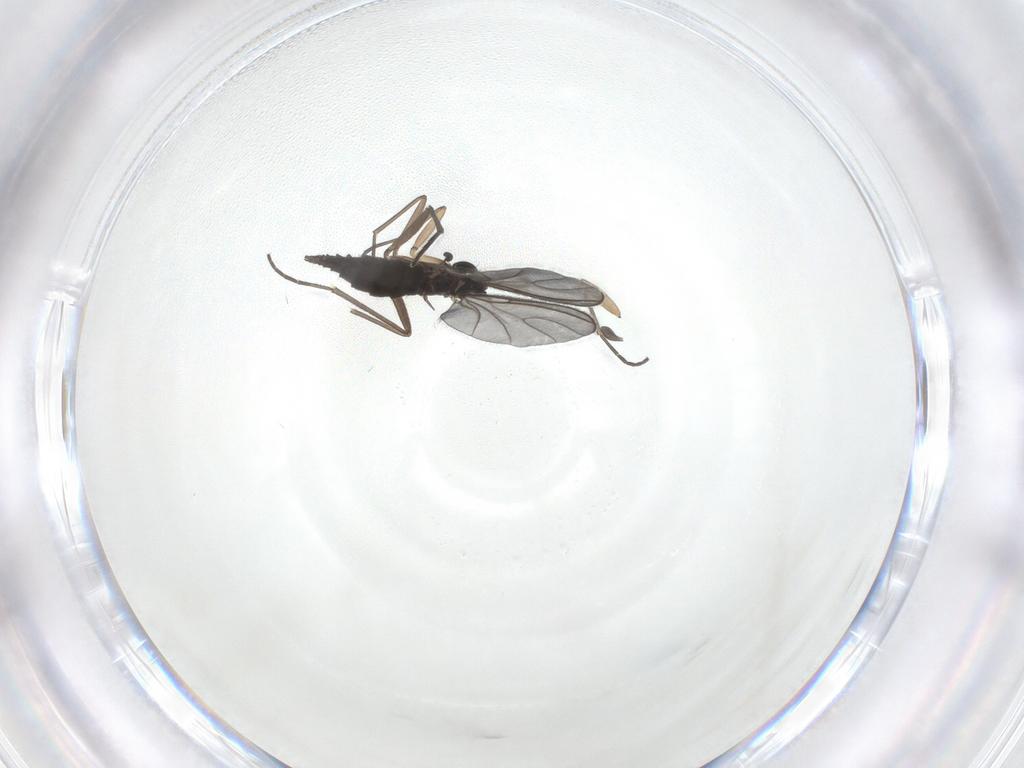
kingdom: Animalia
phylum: Arthropoda
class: Insecta
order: Diptera
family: Sciaridae
